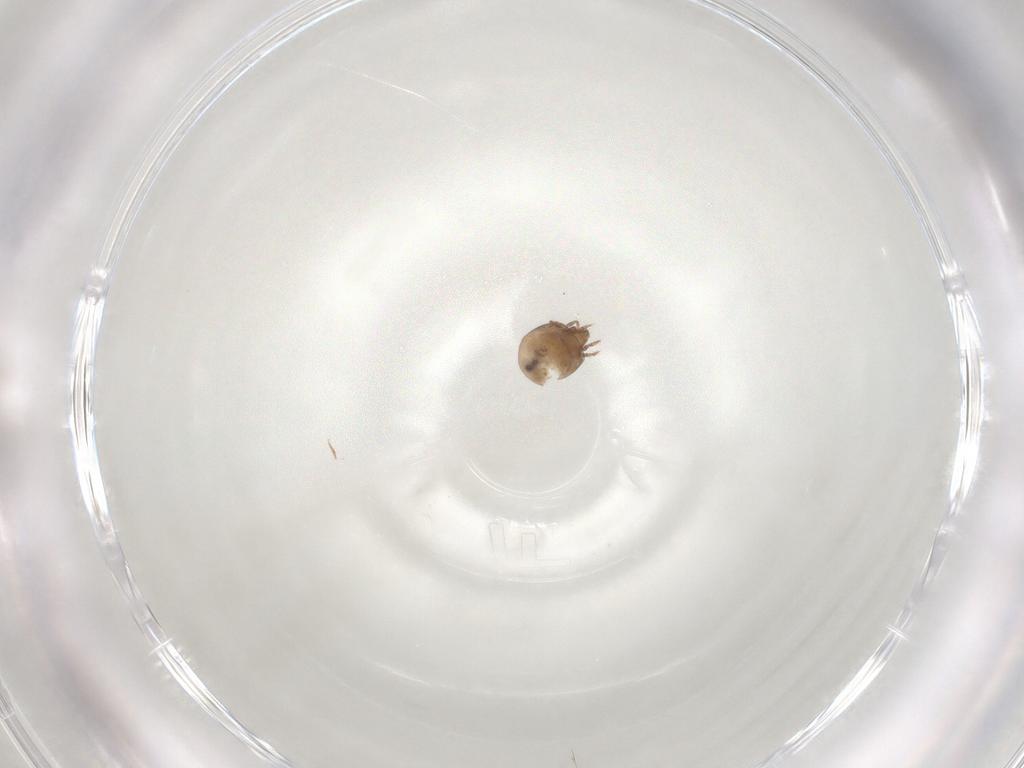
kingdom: Animalia
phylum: Arthropoda
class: Arachnida
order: Sarcoptiformes
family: Galumnidae
